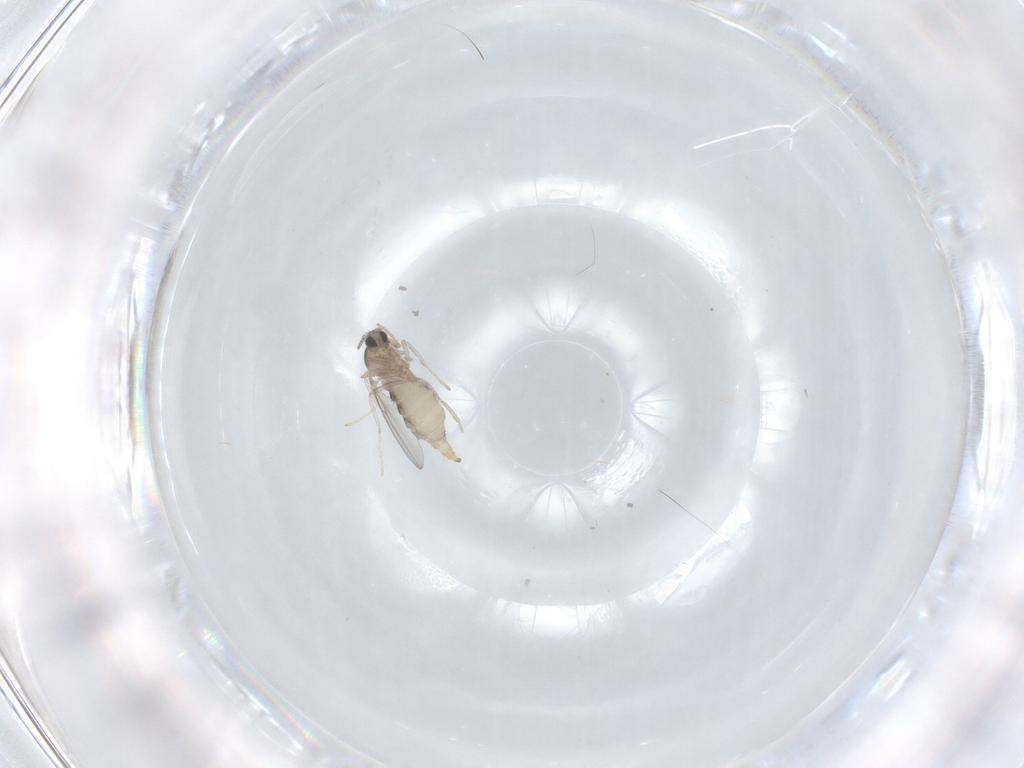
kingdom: Animalia
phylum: Arthropoda
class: Insecta
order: Diptera
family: Cecidomyiidae
